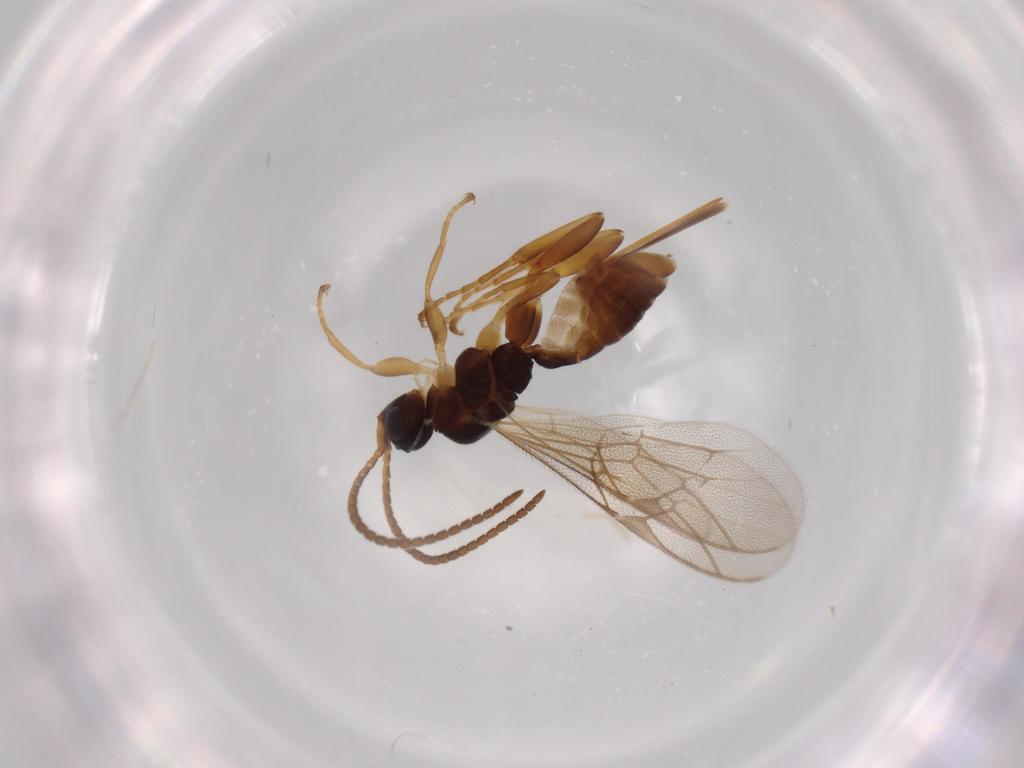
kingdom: Animalia
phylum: Arthropoda
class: Insecta
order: Hymenoptera
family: Ichneumonidae
